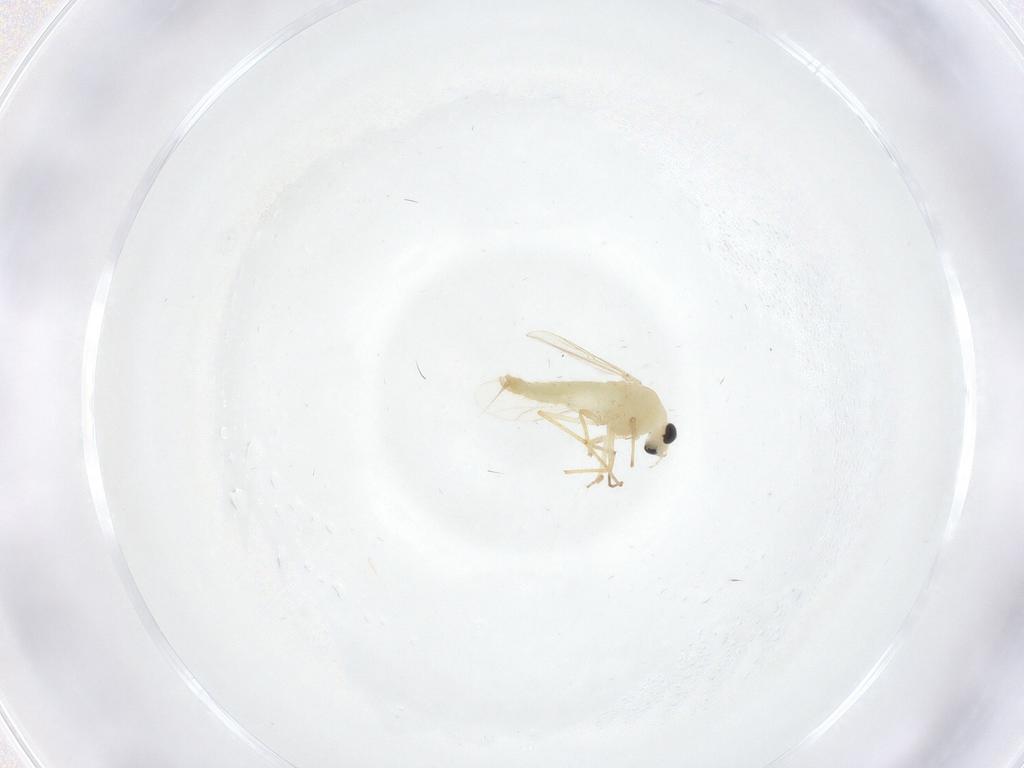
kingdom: Animalia
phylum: Arthropoda
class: Insecta
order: Diptera
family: Chironomidae
